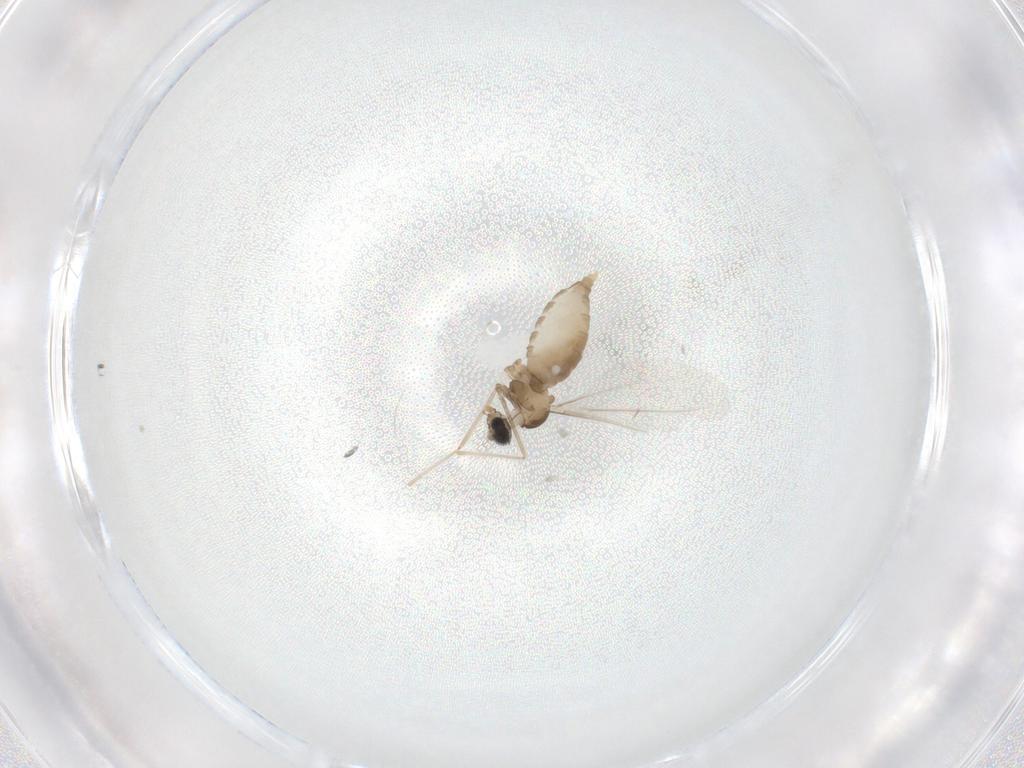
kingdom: Animalia
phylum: Arthropoda
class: Insecta
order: Diptera
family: Cecidomyiidae
